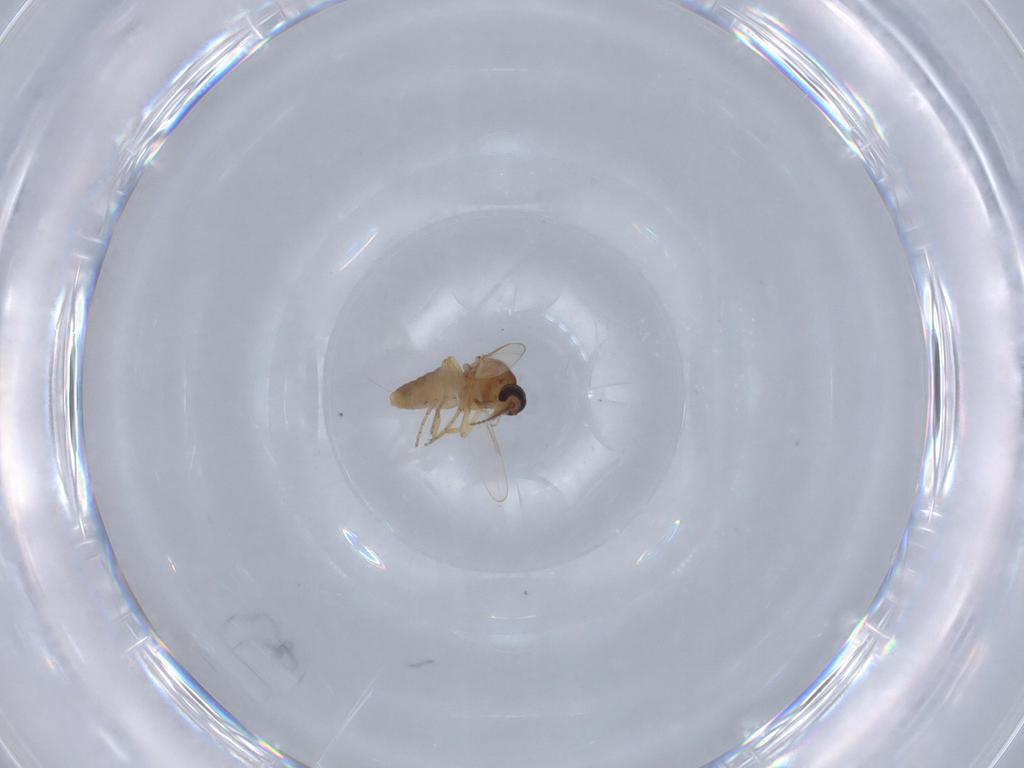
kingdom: Animalia
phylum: Arthropoda
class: Insecta
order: Diptera
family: Ceratopogonidae
